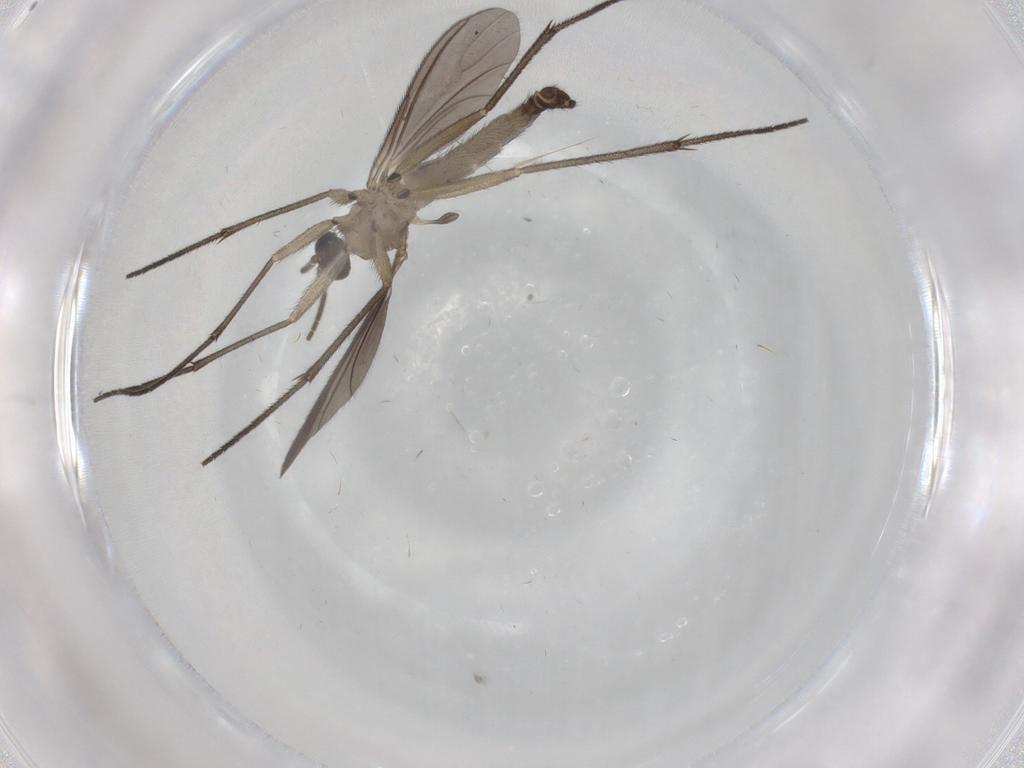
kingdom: Animalia
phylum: Arthropoda
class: Insecta
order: Diptera
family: Sciaridae
